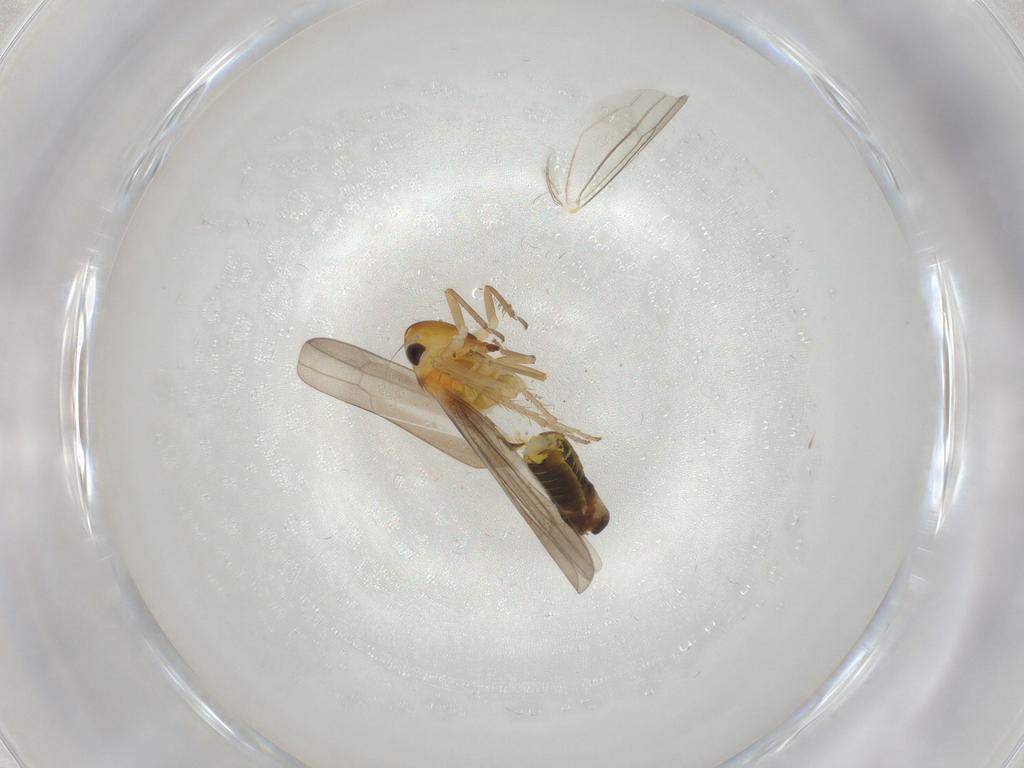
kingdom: Animalia
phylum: Arthropoda
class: Insecta
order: Hemiptera
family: Cicadellidae
